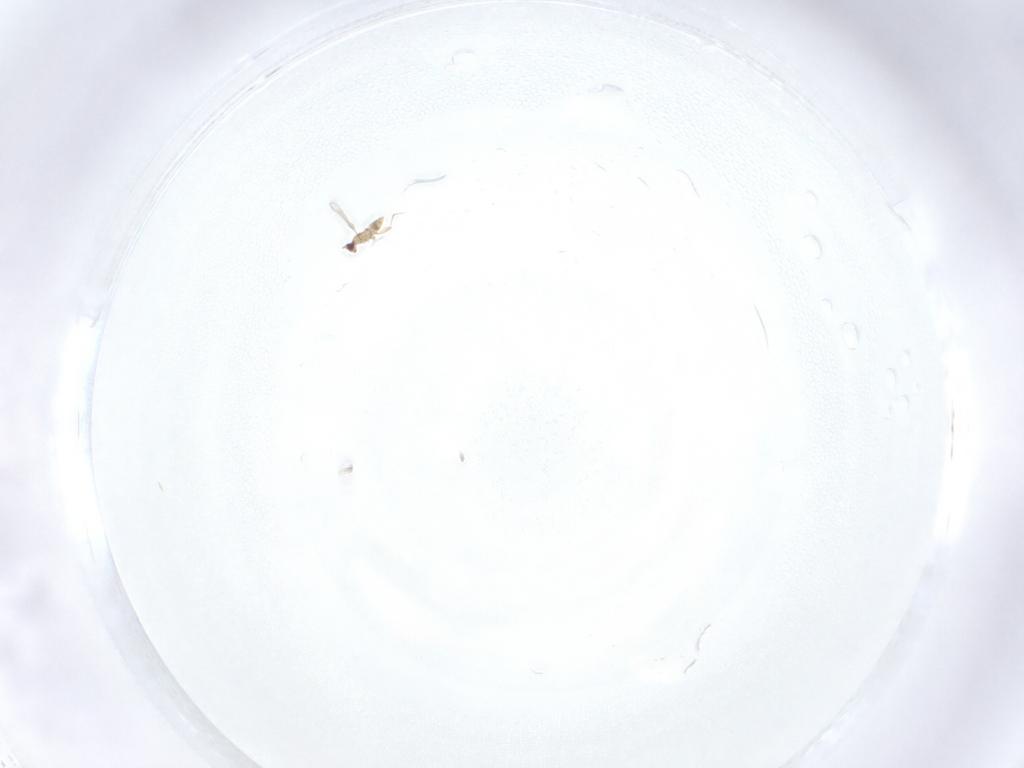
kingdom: Animalia
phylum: Arthropoda
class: Insecta
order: Hymenoptera
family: Mymaridae
